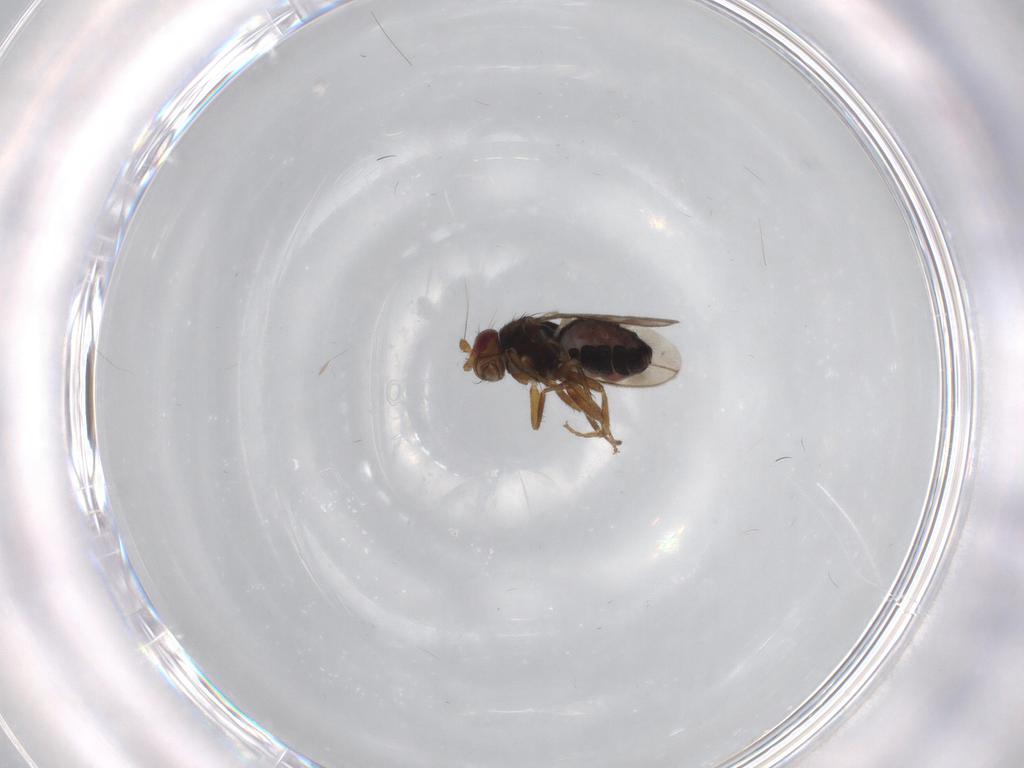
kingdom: Animalia
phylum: Arthropoda
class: Insecta
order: Diptera
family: Sphaeroceridae
